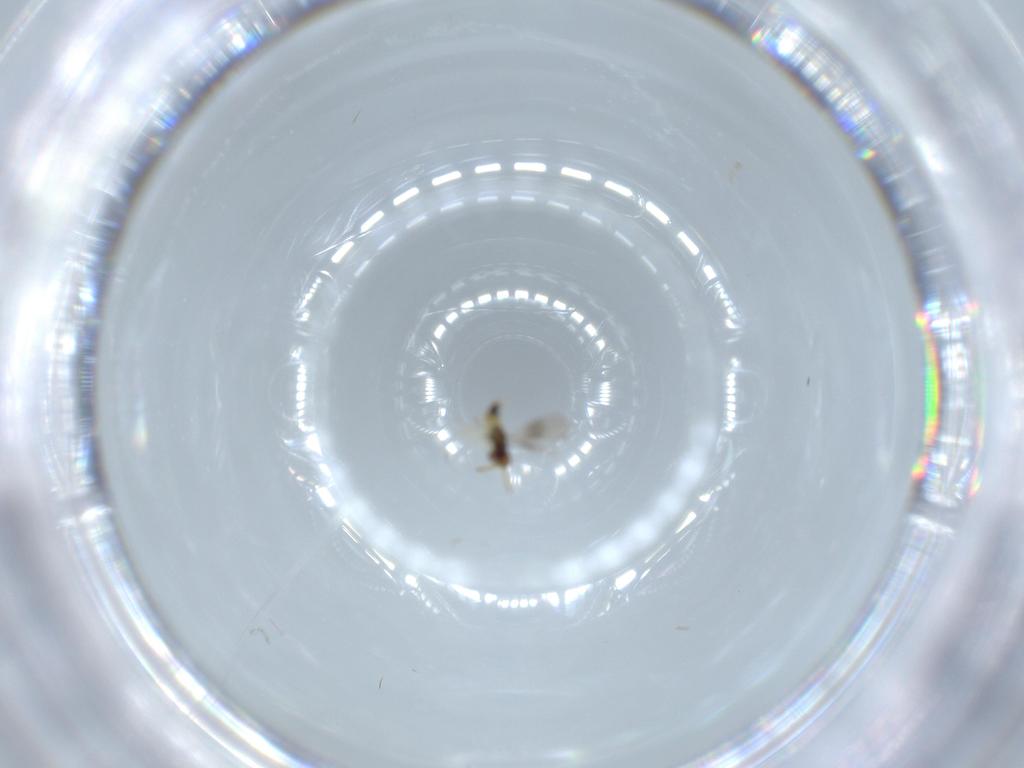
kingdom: Animalia
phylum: Arthropoda
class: Insecta
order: Hymenoptera
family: Aphelinidae
